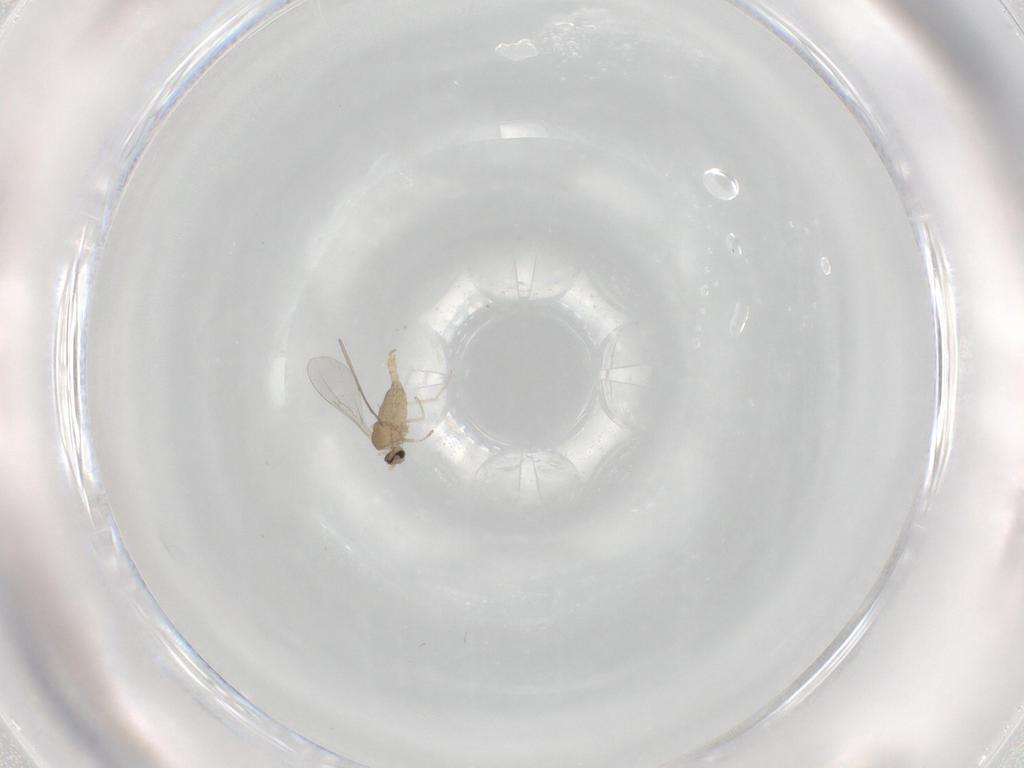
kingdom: Animalia
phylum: Arthropoda
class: Insecta
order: Diptera
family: Cecidomyiidae
